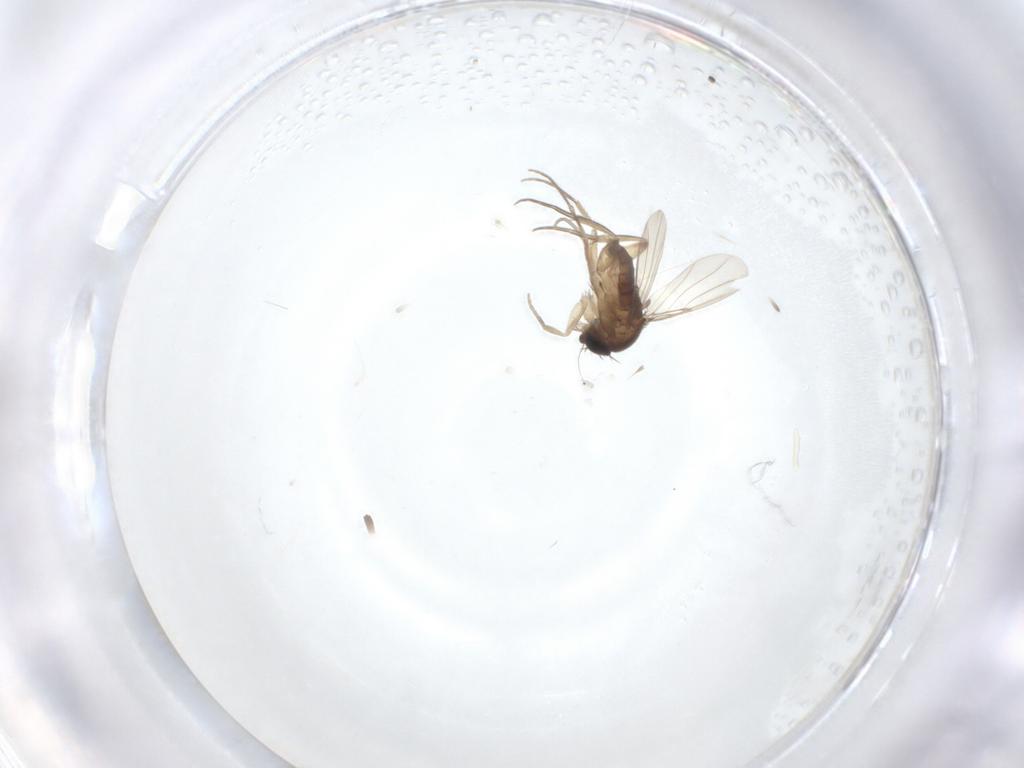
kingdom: Animalia
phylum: Arthropoda
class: Insecta
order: Diptera
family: Phoridae
